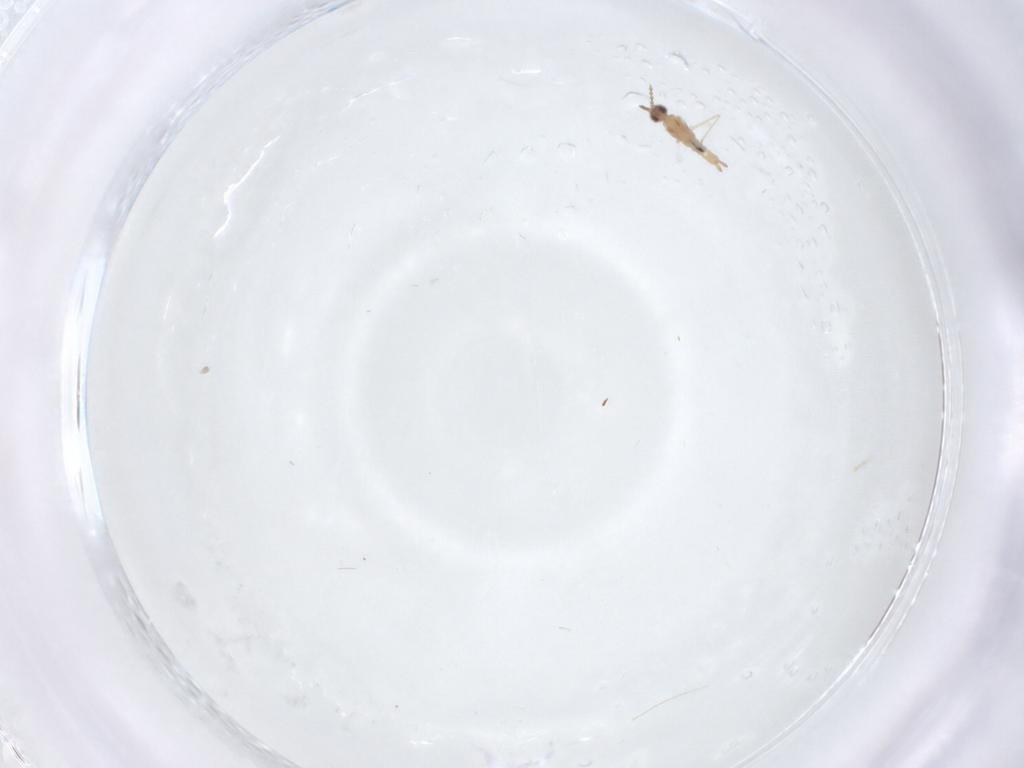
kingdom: Animalia
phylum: Arthropoda
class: Insecta
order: Diptera
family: Cecidomyiidae
